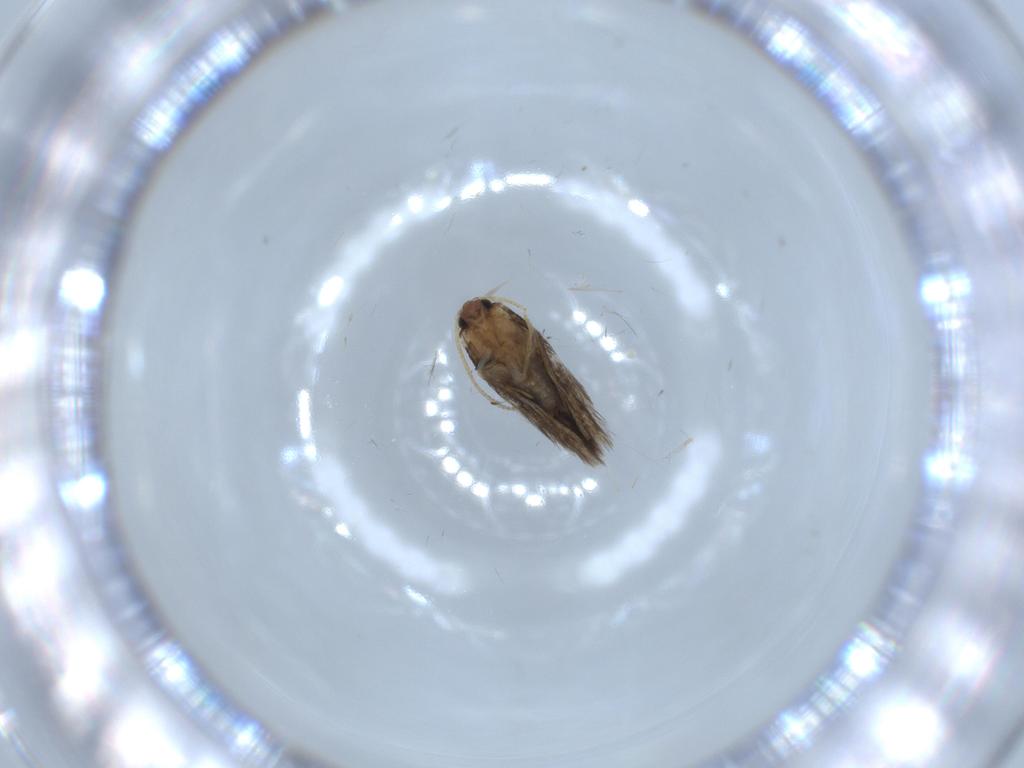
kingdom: Animalia
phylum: Arthropoda
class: Insecta
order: Lepidoptera
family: Nepticulidae
